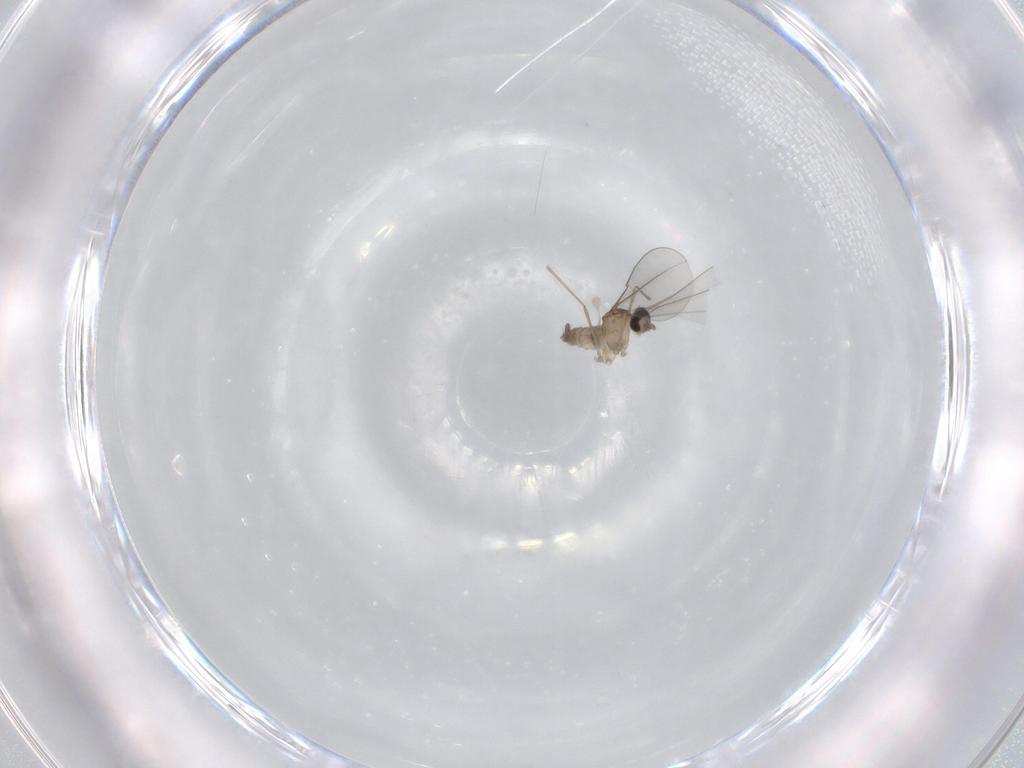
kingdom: Animalia
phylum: Arthropoda
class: Insecta
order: Diptera
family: Cecidomyiidae
